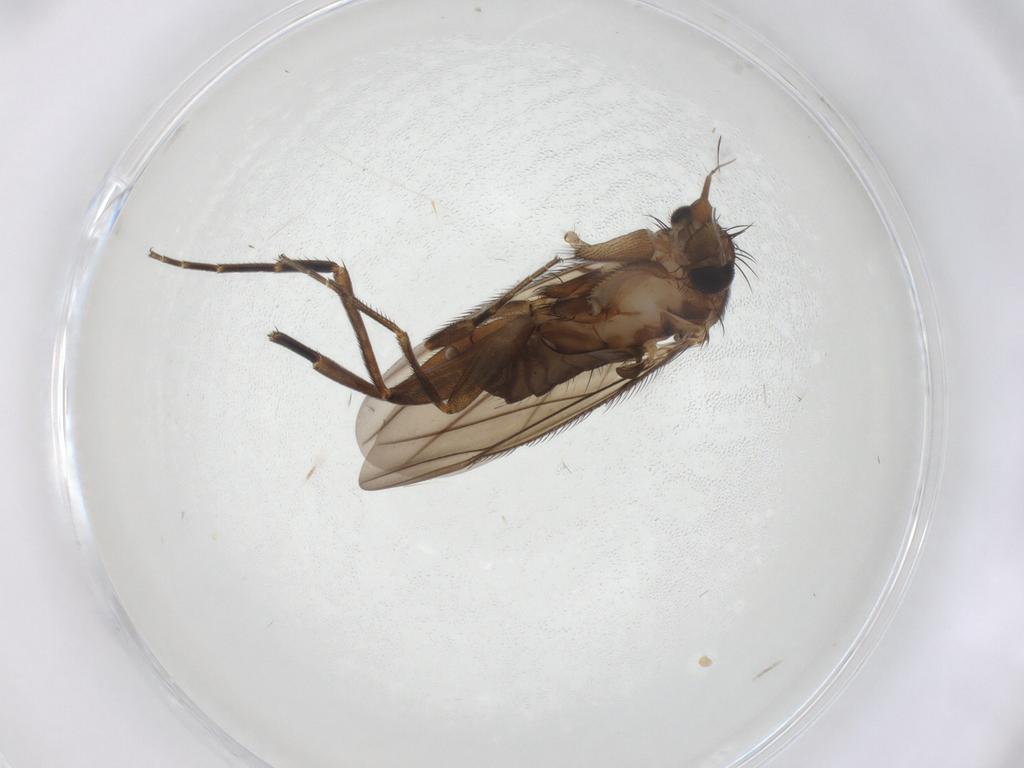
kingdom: Animalia
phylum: Arthropoda
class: Insecta
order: Diptera
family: Phoridae
